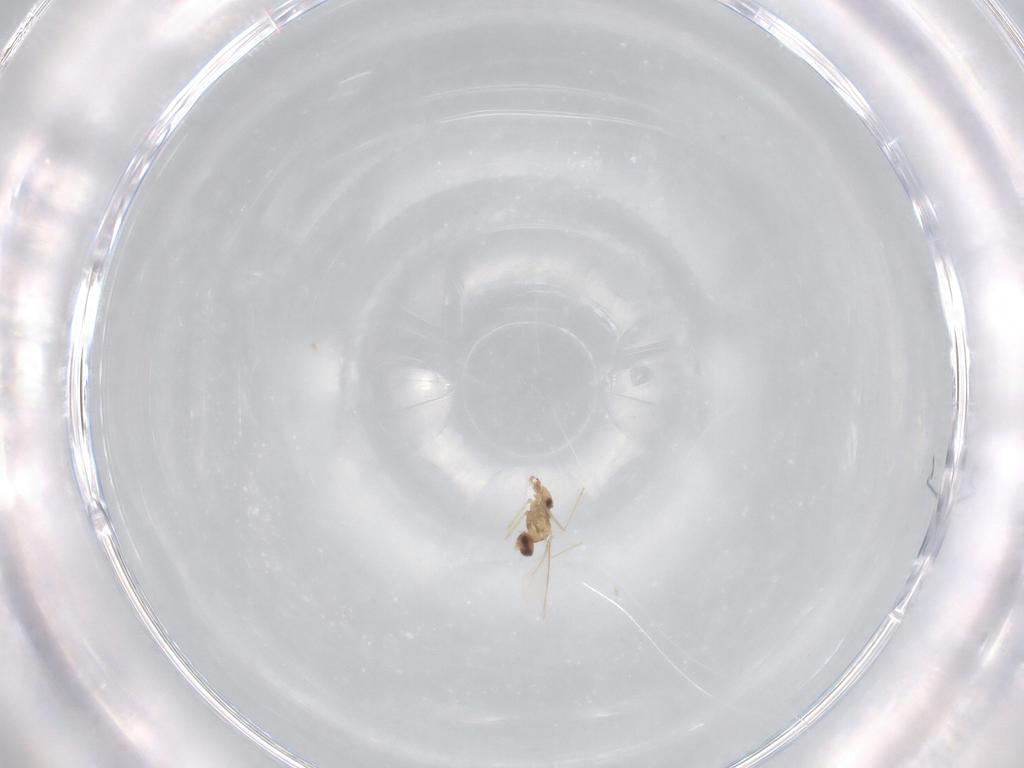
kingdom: Animalia
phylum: Arthropoda
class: Insecta
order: Diptera
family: Cecidomyiidae
